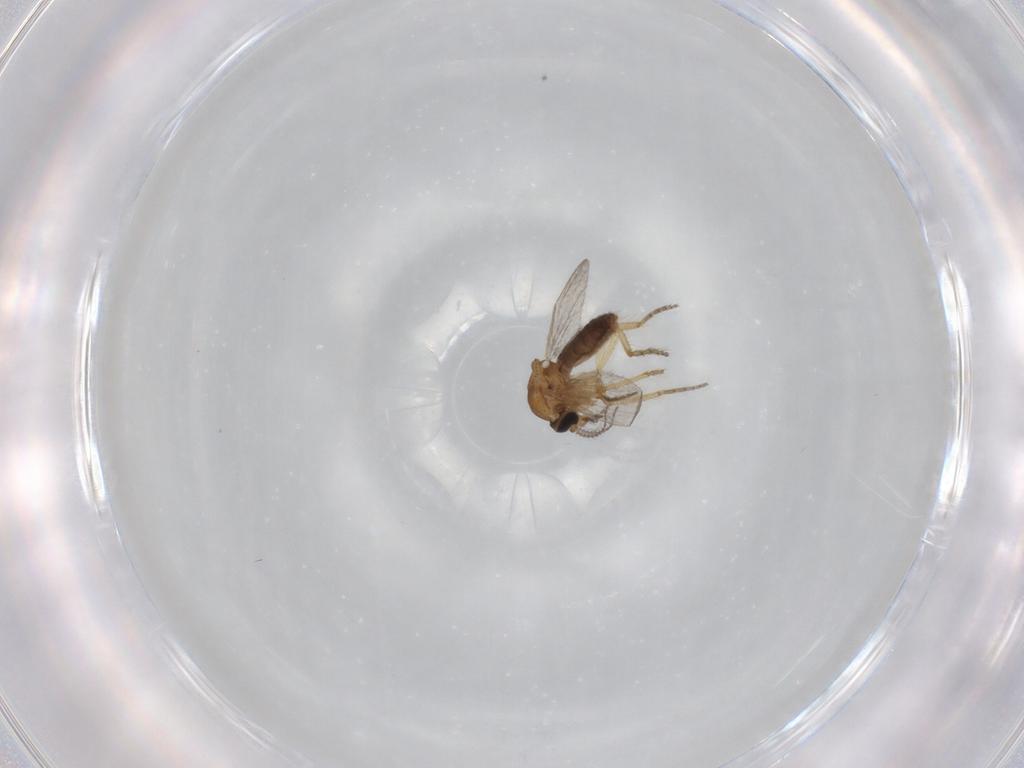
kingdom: Animalia
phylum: Arthropoda
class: Insecta
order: Diptera
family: Ceratopogonidae
